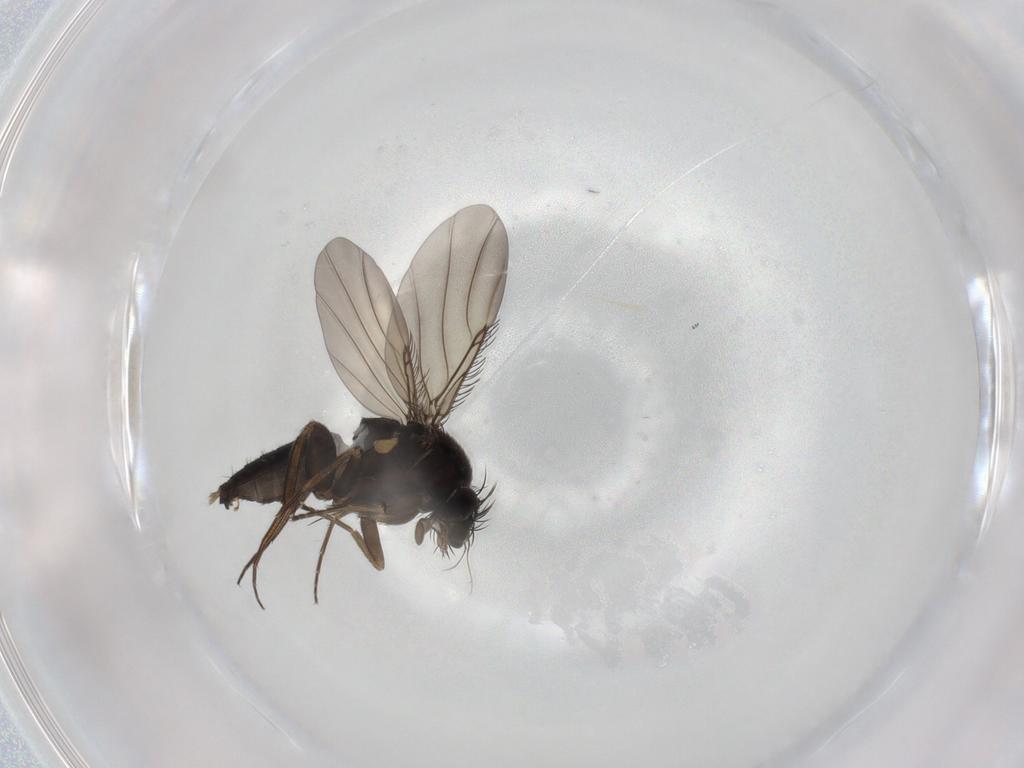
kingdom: Animalia
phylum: Arthropoda
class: Insecta
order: Diptera
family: Phoridae
